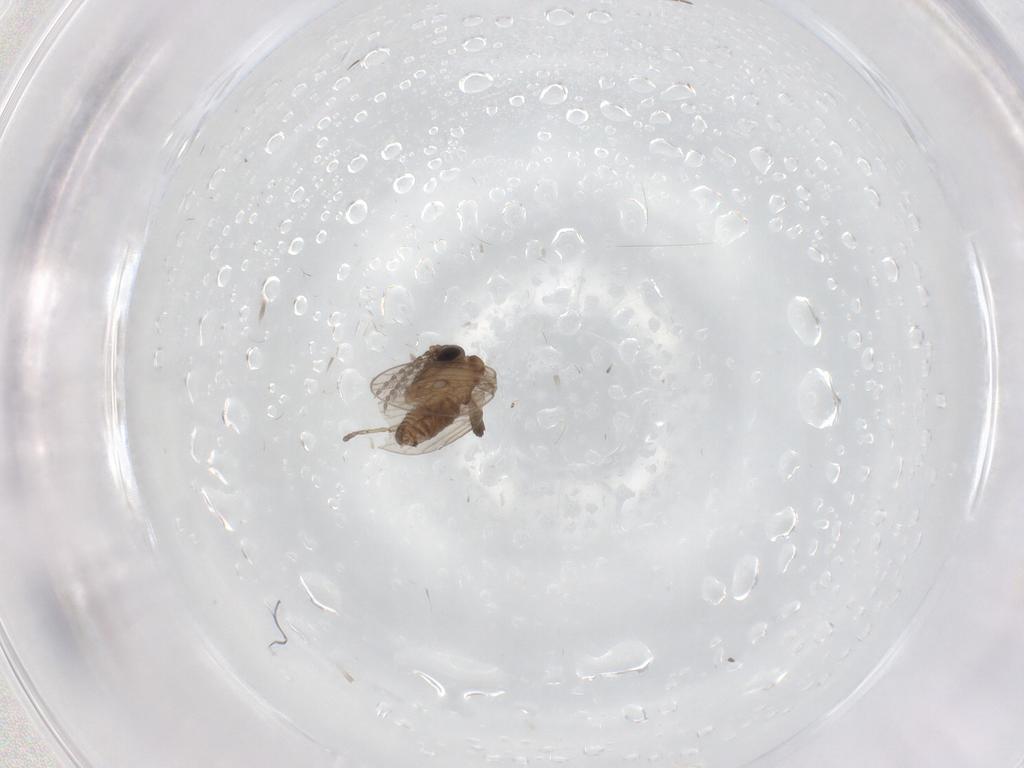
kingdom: Animalia
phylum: Arthropoda
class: Insecta
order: Diptera
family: Sciaridae
